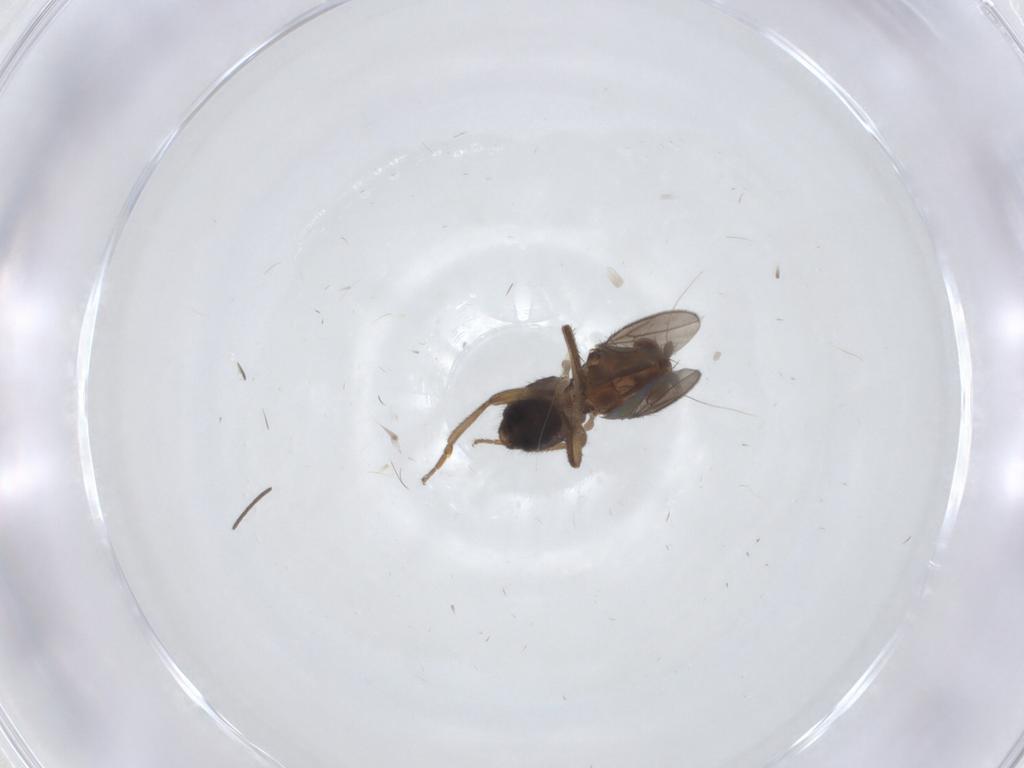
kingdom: Animalia
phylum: Arthropoda
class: Insecta
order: Diptera
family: Sphaeroceridae
